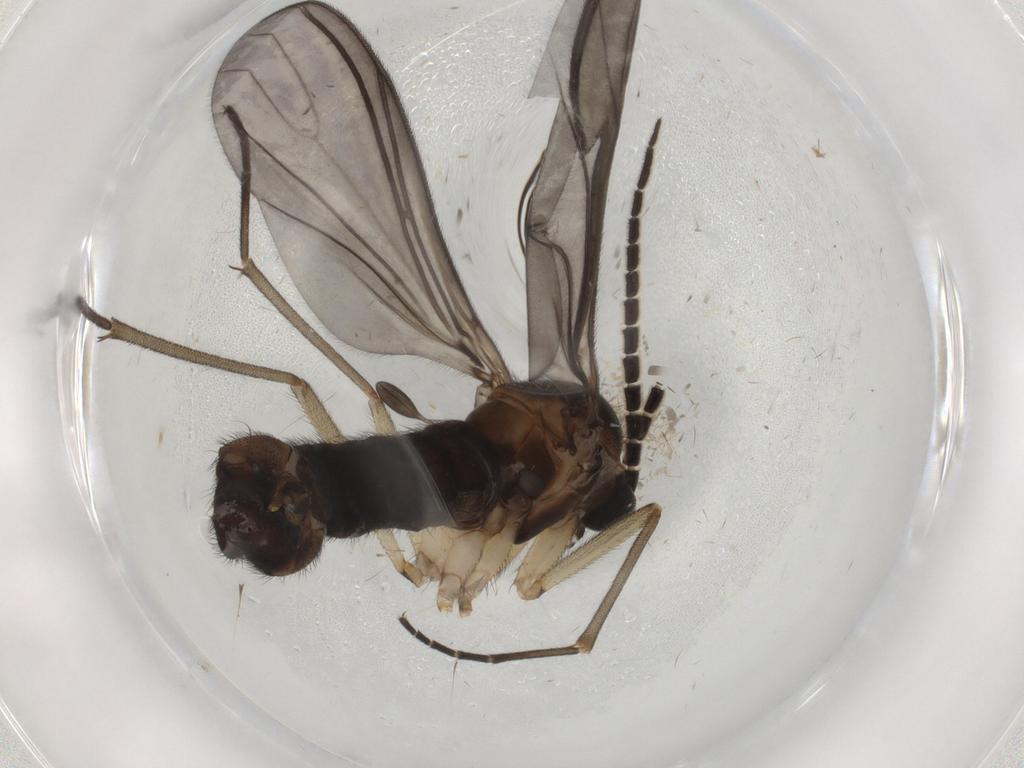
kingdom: Animalia
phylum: Arthropoda
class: Insecta
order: Diptera
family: Sciaridae
